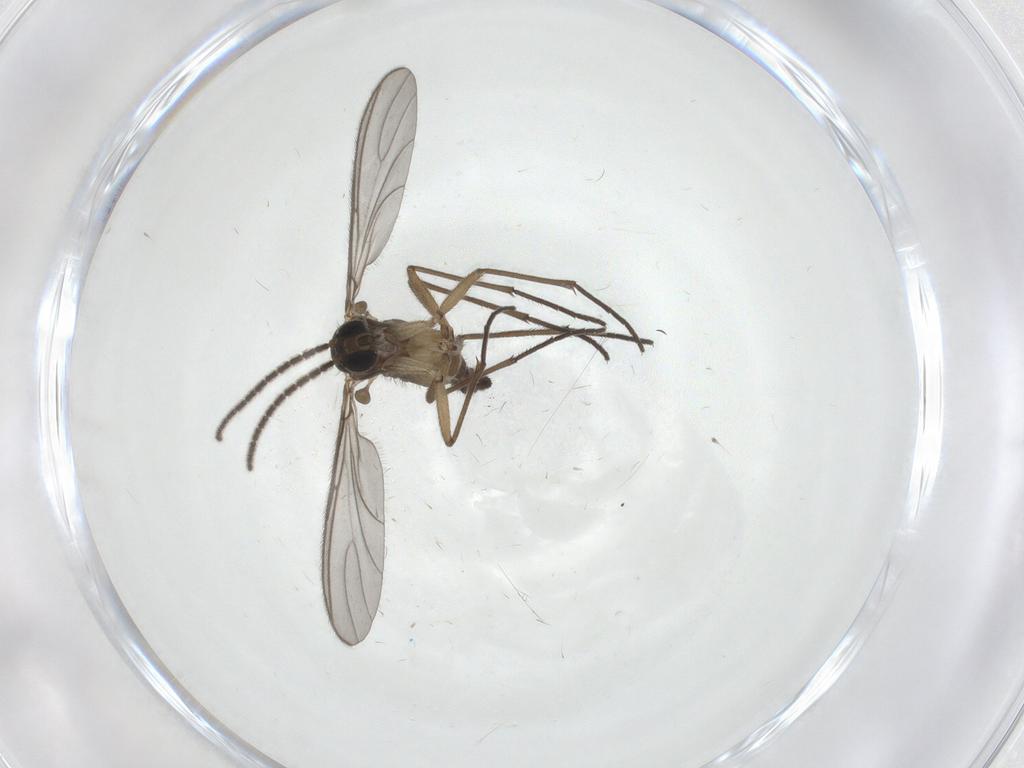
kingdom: Animalia
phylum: Arthropoda
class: Insecta
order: Diptera
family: Sciaridae
